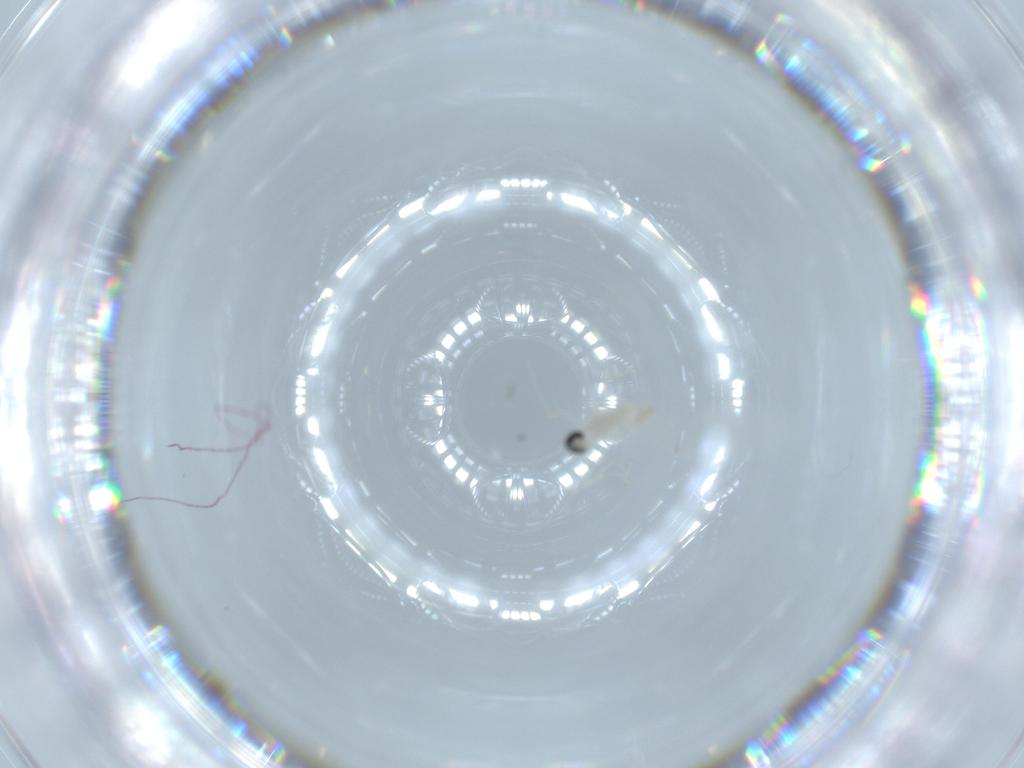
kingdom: Animalia
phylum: Arthropoda
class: Insecta
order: Diptera
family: Cecidomyiidae
